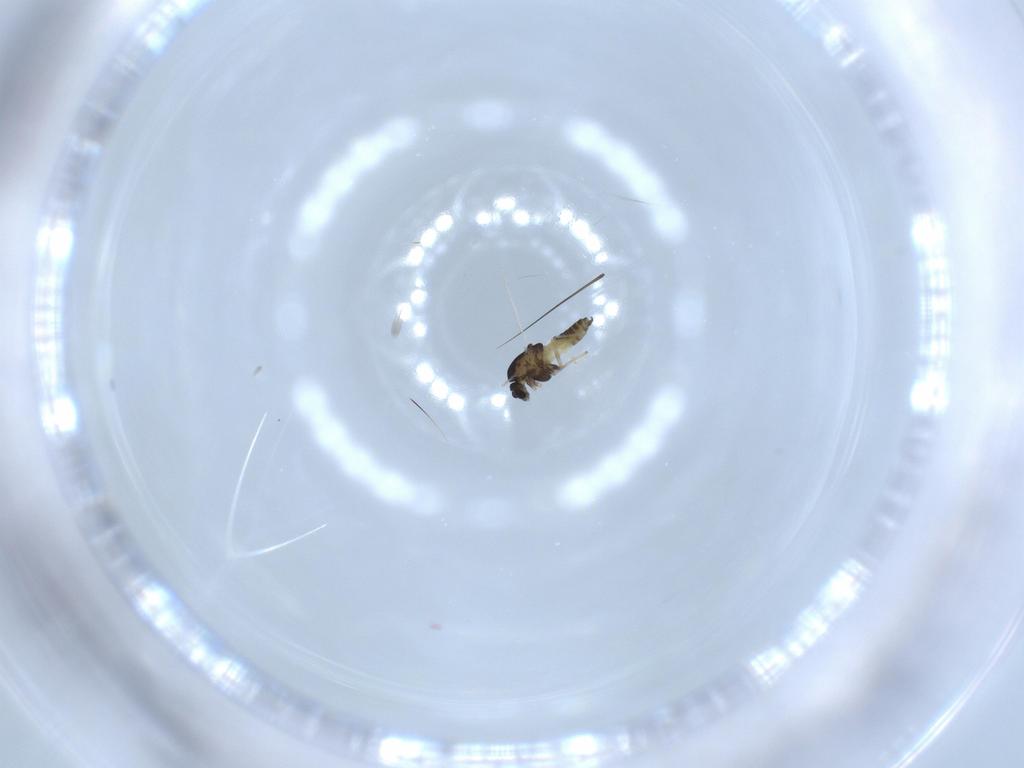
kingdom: Animalia
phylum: Arthropoda
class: Insecta
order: Diptera
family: Chironomidae
